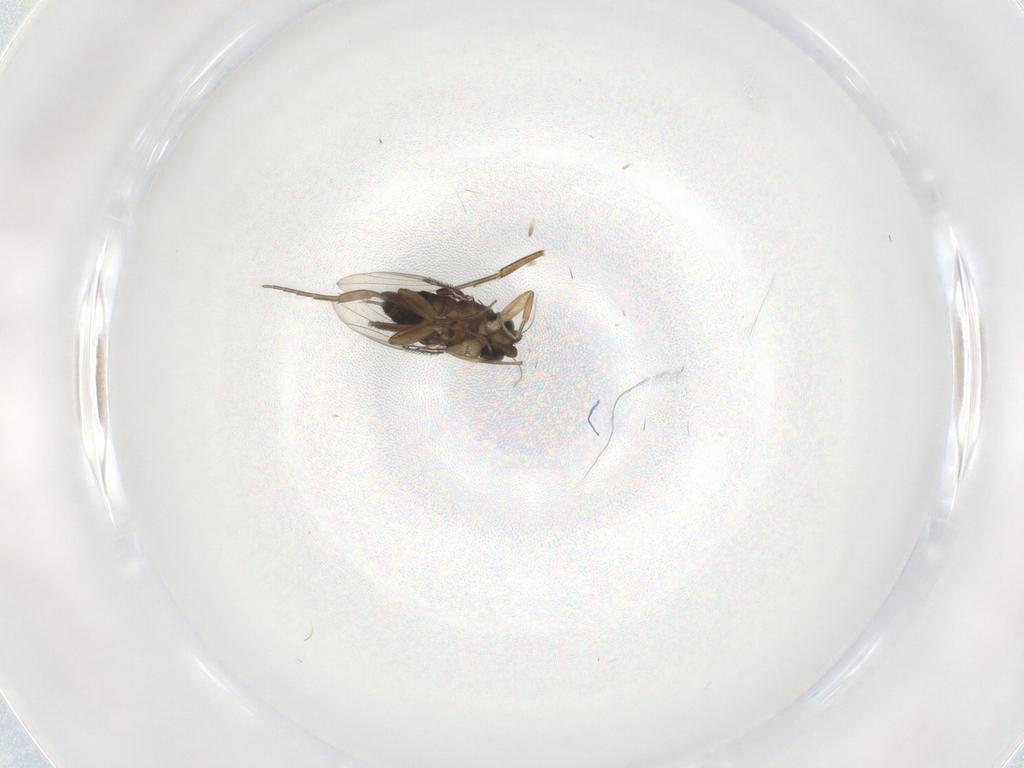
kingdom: Animalia
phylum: Arthropoda
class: Insecta
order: Diptera
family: Phoridae
